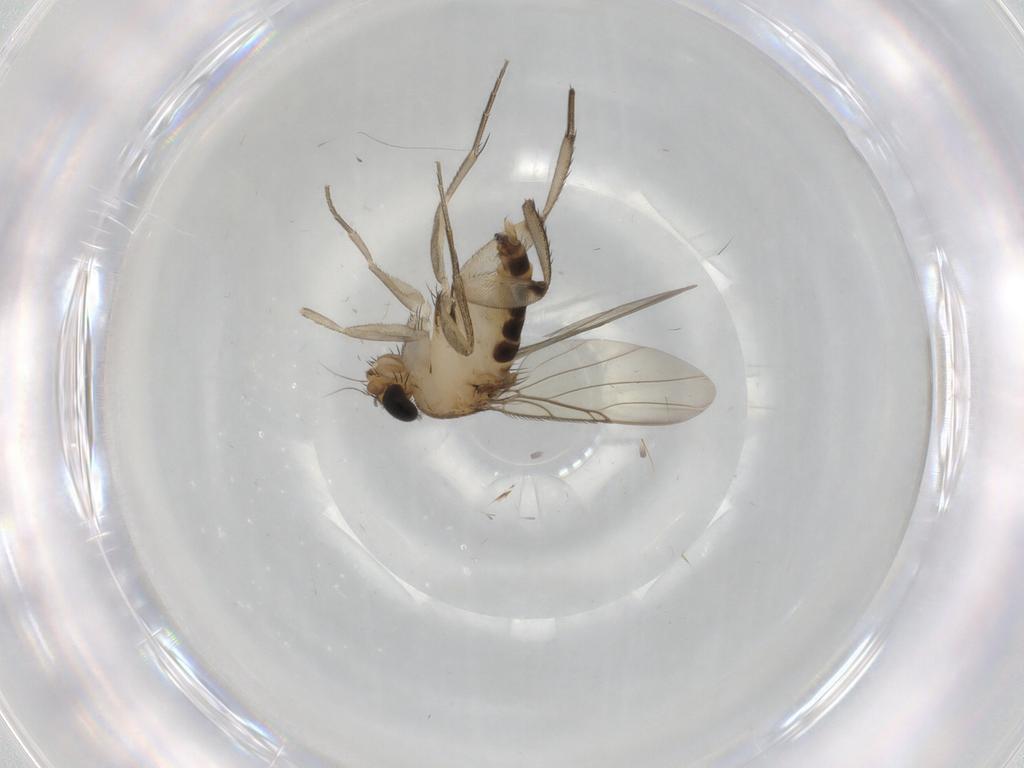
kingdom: Animalia
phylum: Arthropoda
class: Insecta
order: Diptera
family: Phoridae
